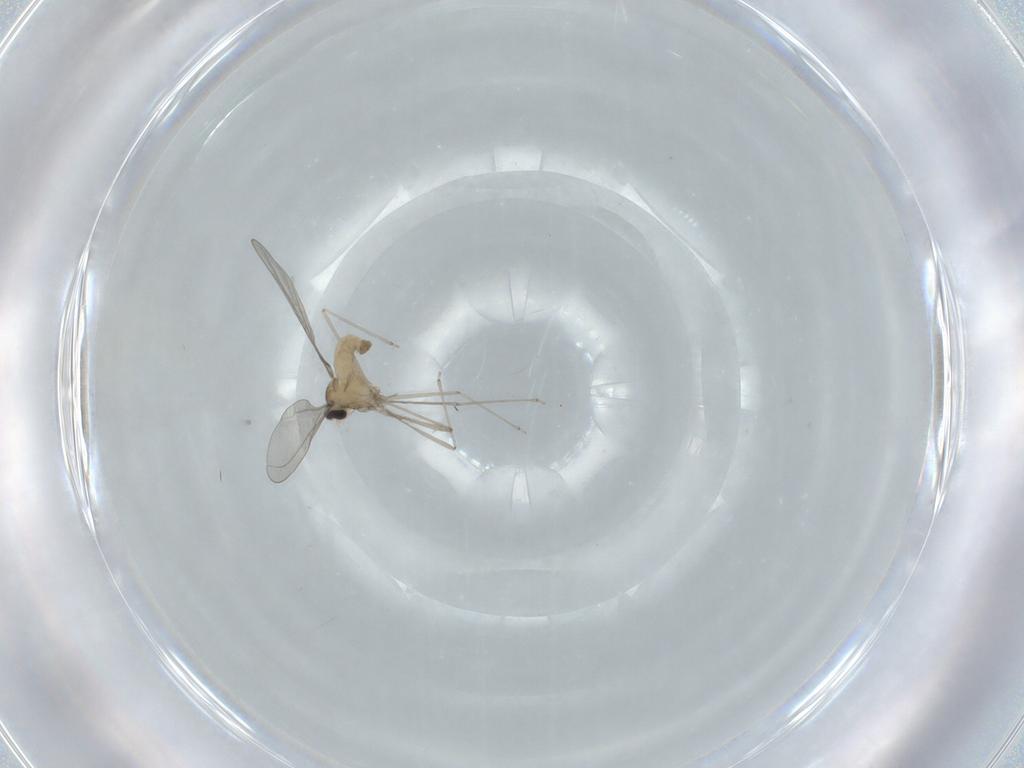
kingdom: Animalia
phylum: Arthropoda
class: Insecta
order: Diptera
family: Cecidomyiidae
